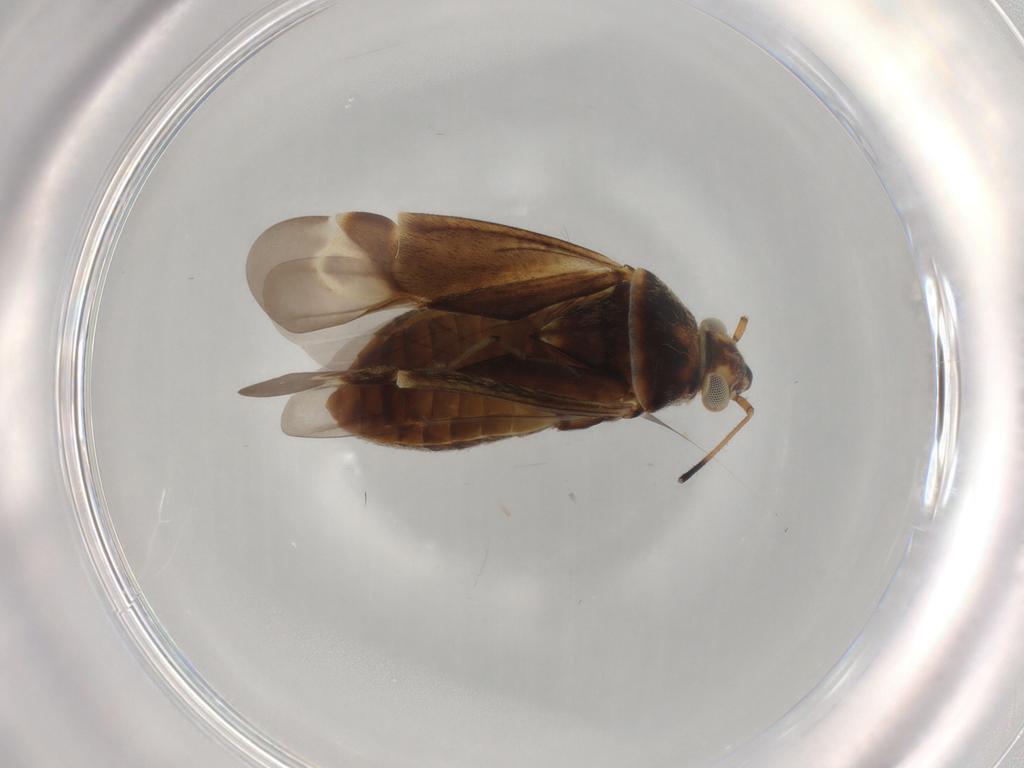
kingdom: Animalia
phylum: Arthropoda
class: Insecta
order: Hemiptera
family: Miridae
